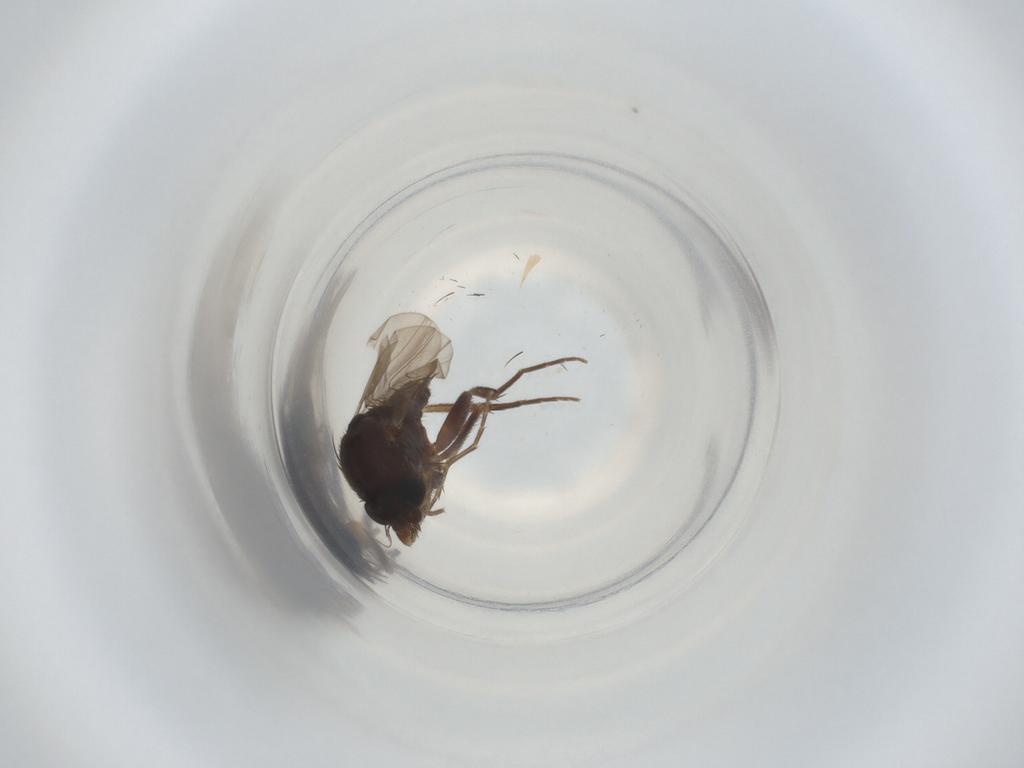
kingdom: Animalia
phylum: Arthropoda
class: Insecta
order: Diptera
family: Phoridae
